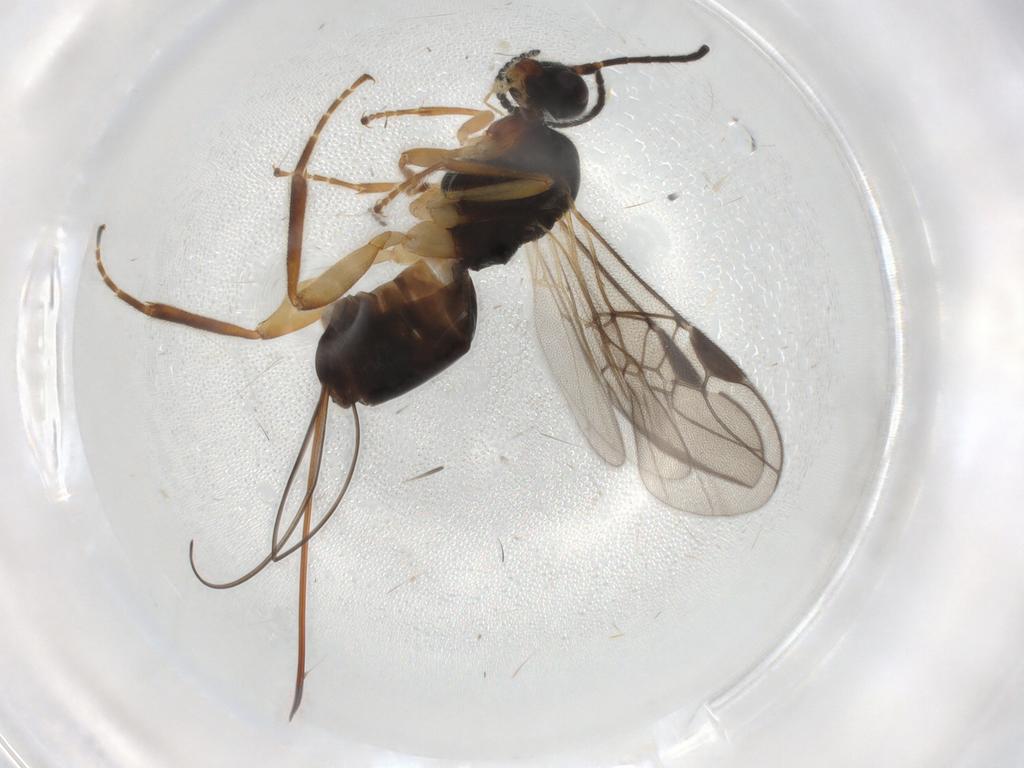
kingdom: Animalia
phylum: Arthropoda
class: Insecta
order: Hymenoptera
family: Braconidae
